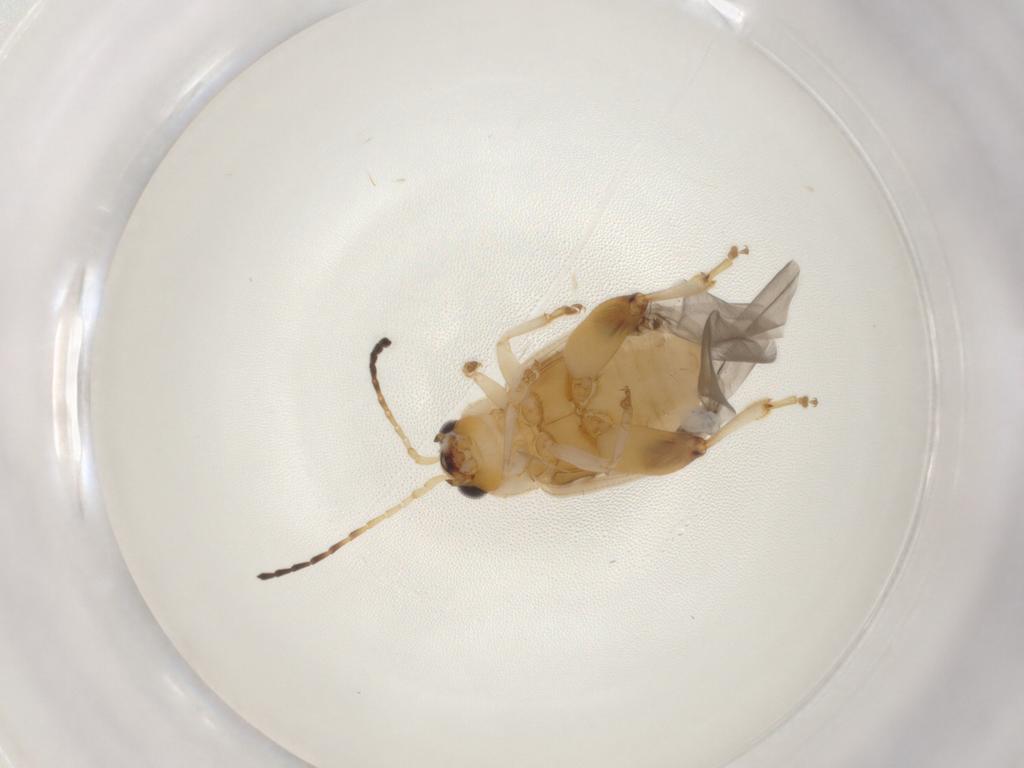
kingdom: Animalia
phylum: Arthropoda
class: Insecta
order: Coleoptera
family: Chrysomelidae
